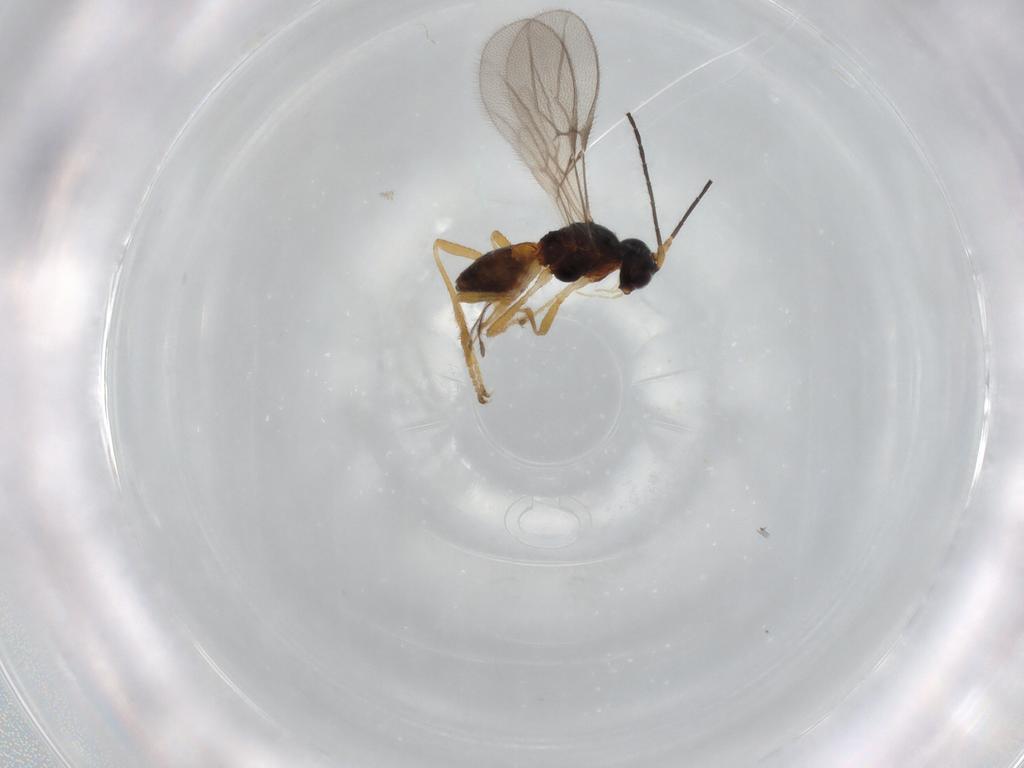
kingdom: Animalia
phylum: Arthropoda
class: Insecta
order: Hymenoptera
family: Braconidae
